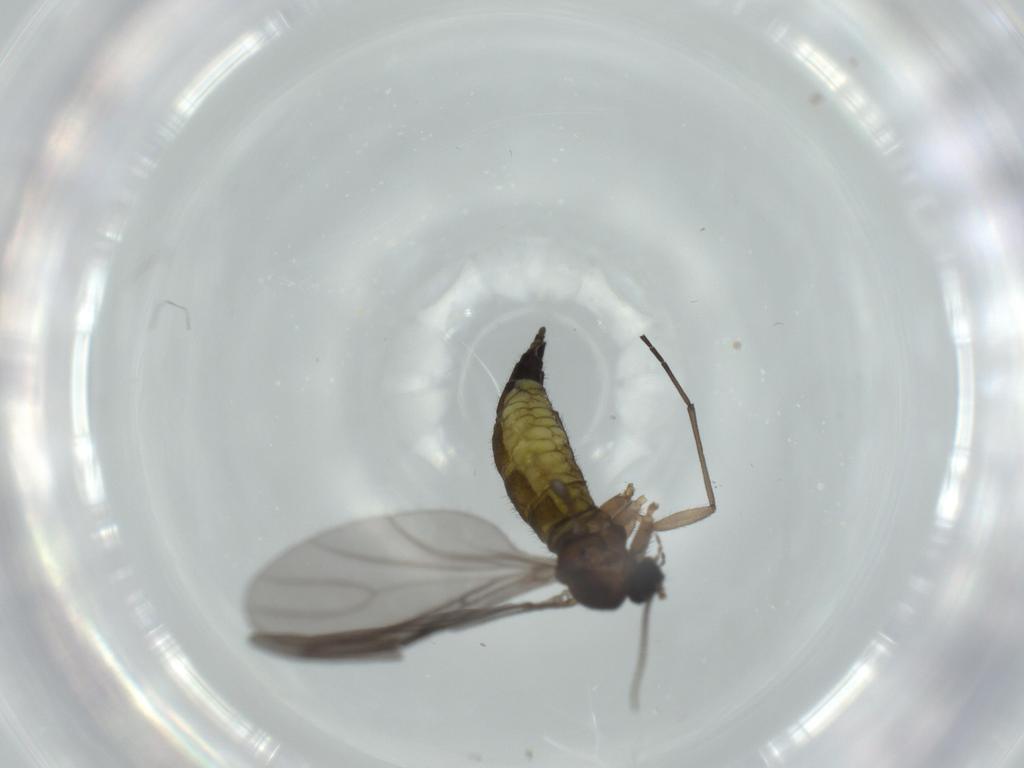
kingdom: Animalia
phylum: Arthropoda
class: Insecta
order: Diptera
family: Sciaridae
